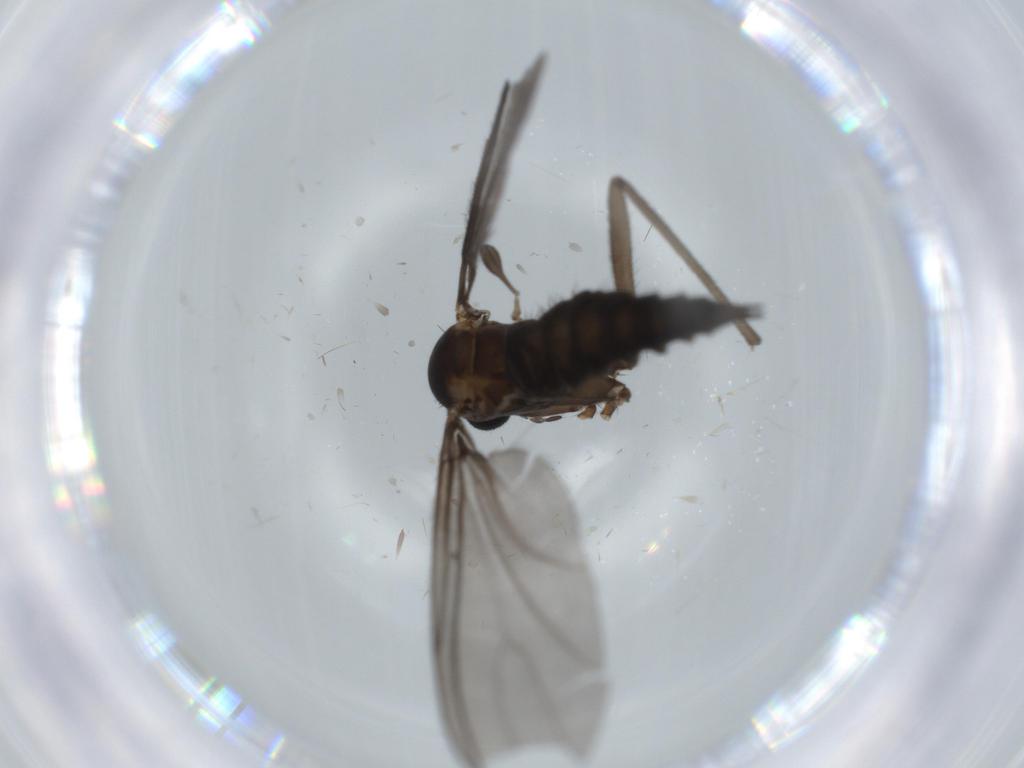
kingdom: Animalia
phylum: Arthropoda
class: Insecta
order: Diptera
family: Sciaridae
